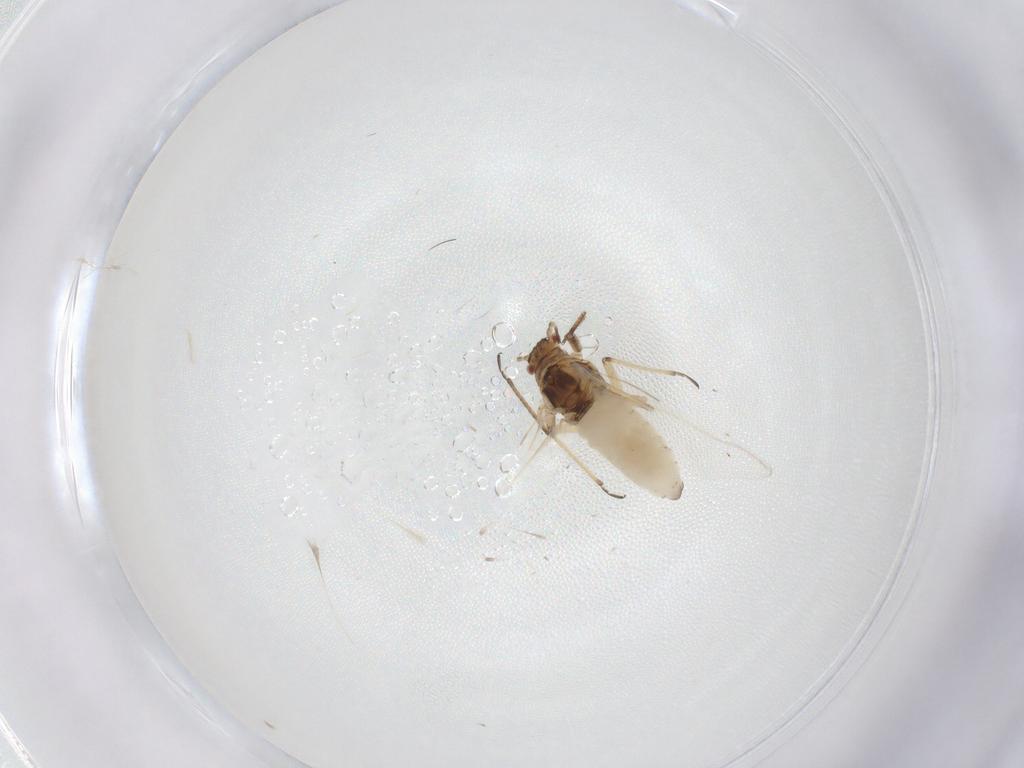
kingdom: Animalia
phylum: Arthropoda
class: Insecta
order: Hemiptera
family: Lachnidae
